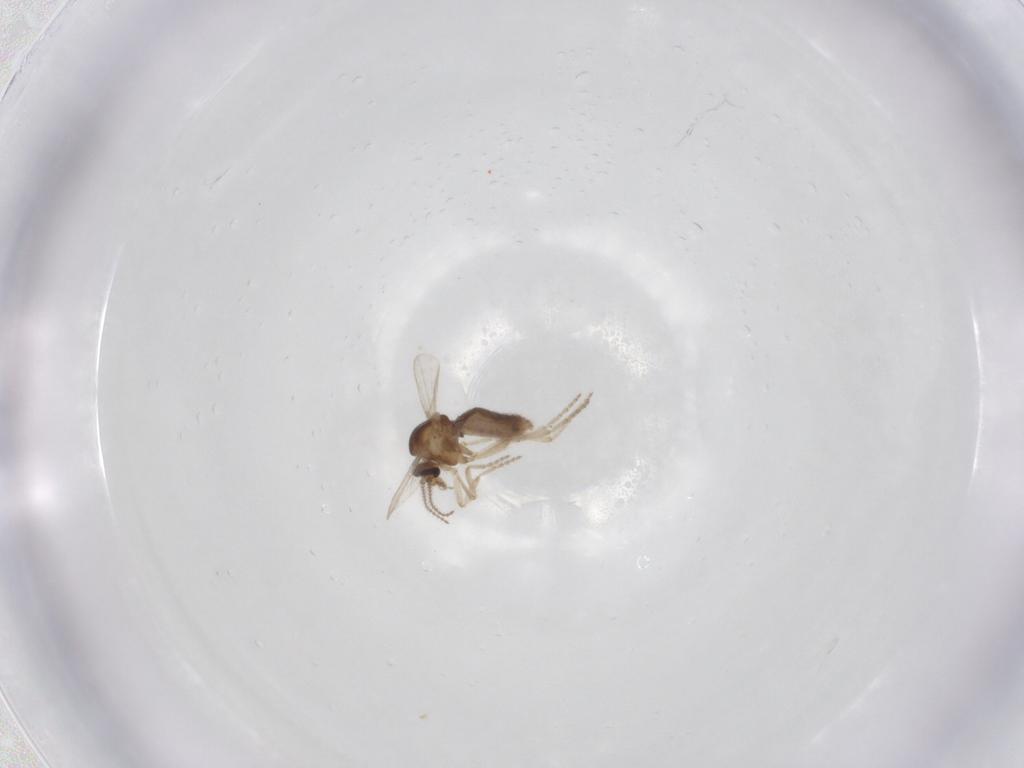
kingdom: Animalia
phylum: Arthropoda
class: Insecta
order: Diptera
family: Ceratopogonidae
